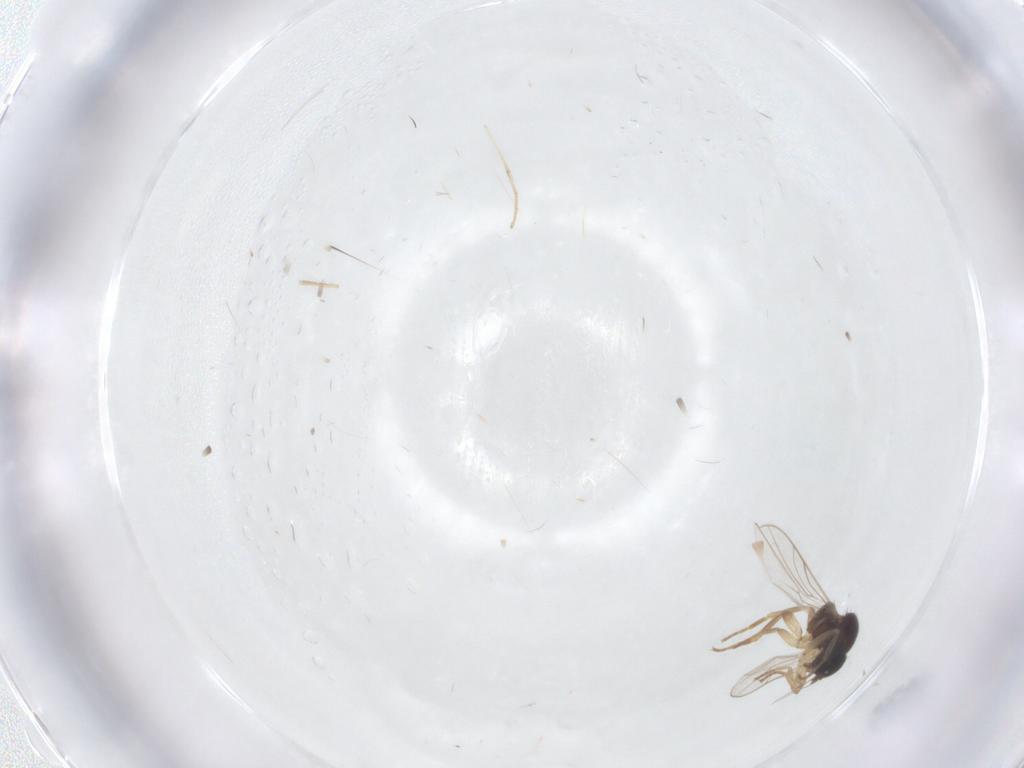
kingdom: Animalia
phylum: Arthropoda
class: Insecta
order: Diptera
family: Hybotidae
